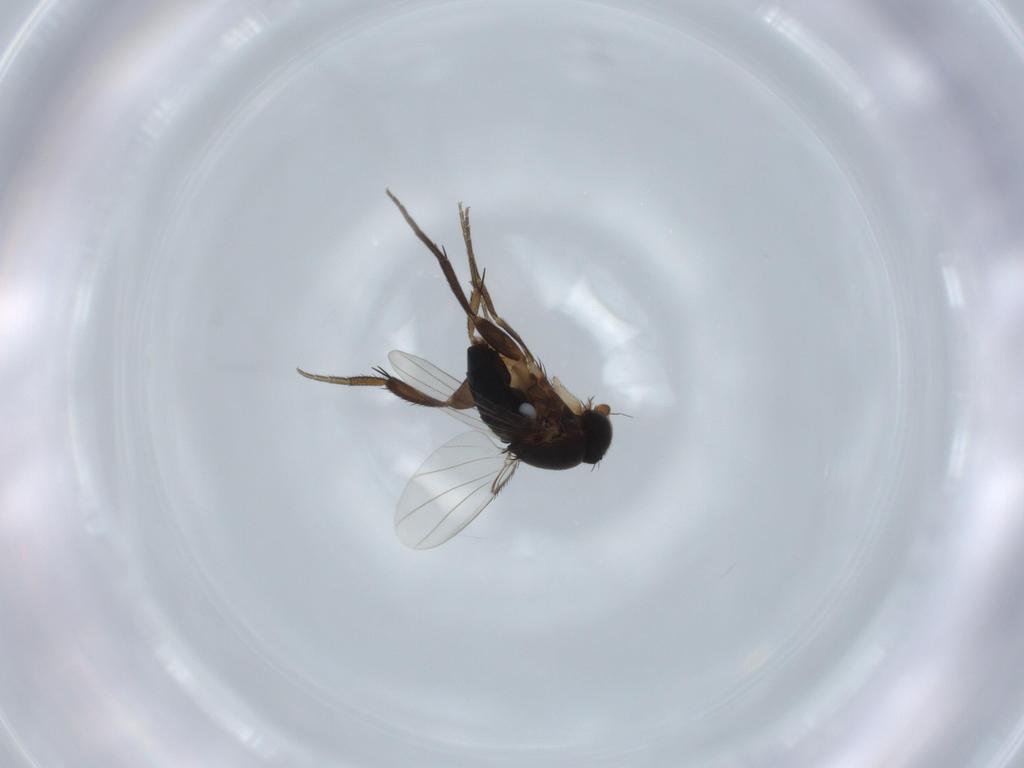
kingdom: Animalia
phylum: Arthropoda
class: Insecta
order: Diptera
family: Phoridae
